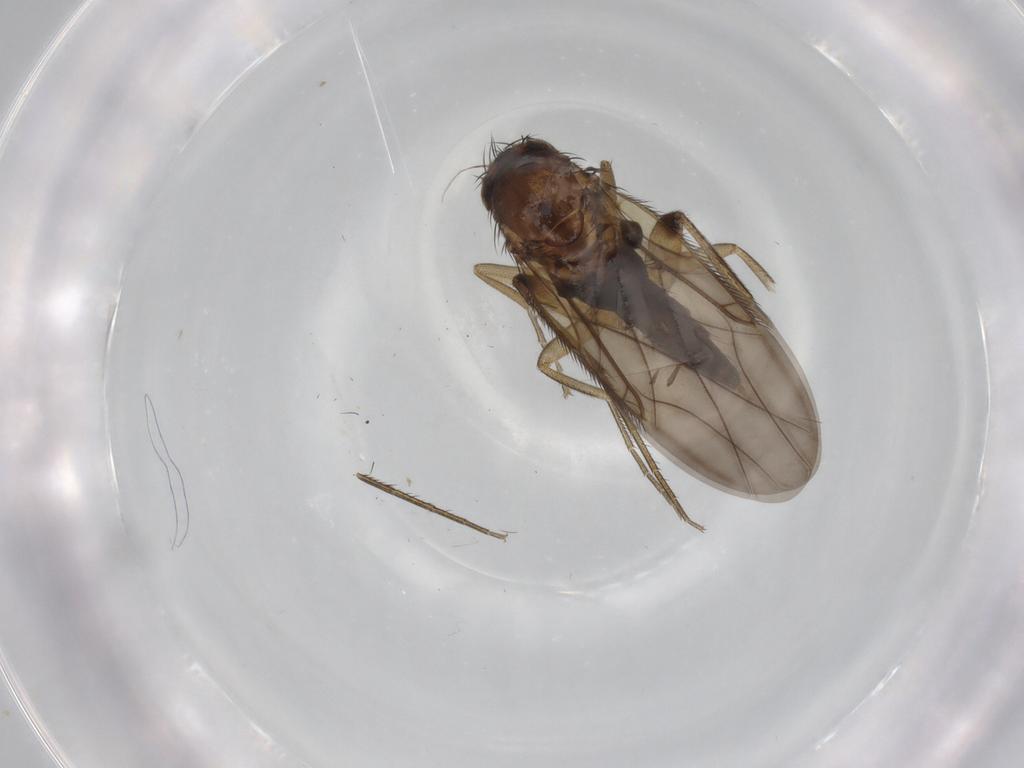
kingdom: Animalia
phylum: Arthropoda
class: Insecta
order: Diptera
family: Phoridae
